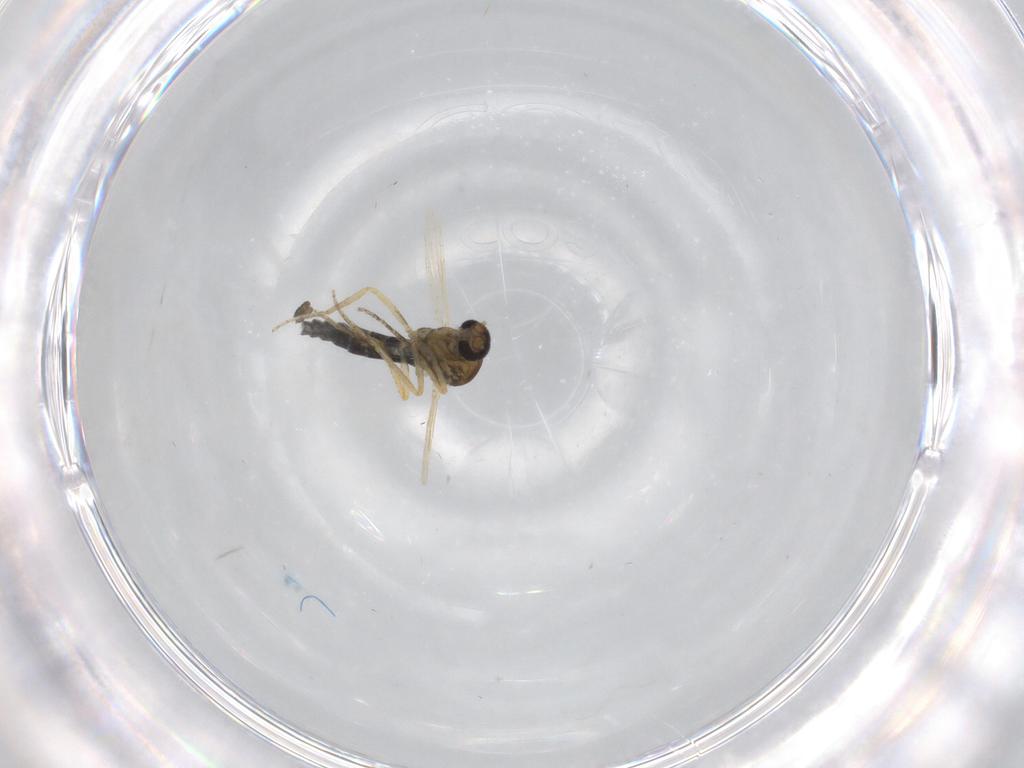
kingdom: Animalia
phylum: Arthropoda
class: Insecta
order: Diptera
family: Ceratopogonidae
